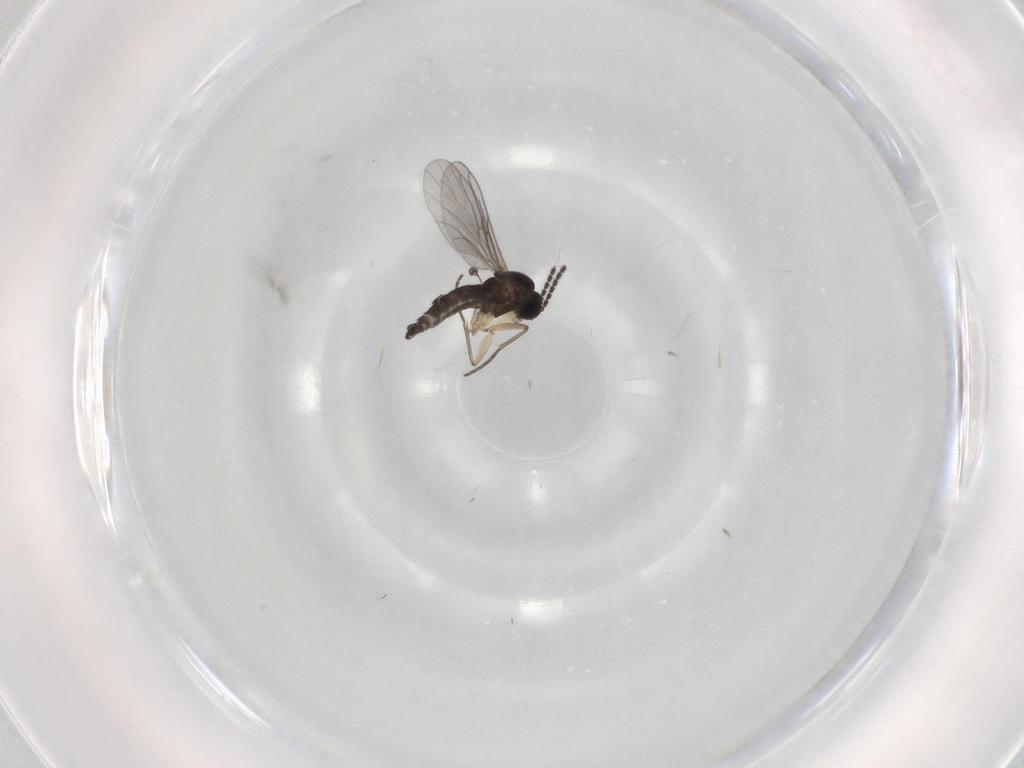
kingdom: Animalia
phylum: Arthropoda
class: Insecta
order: Diptera
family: Sciaridae
